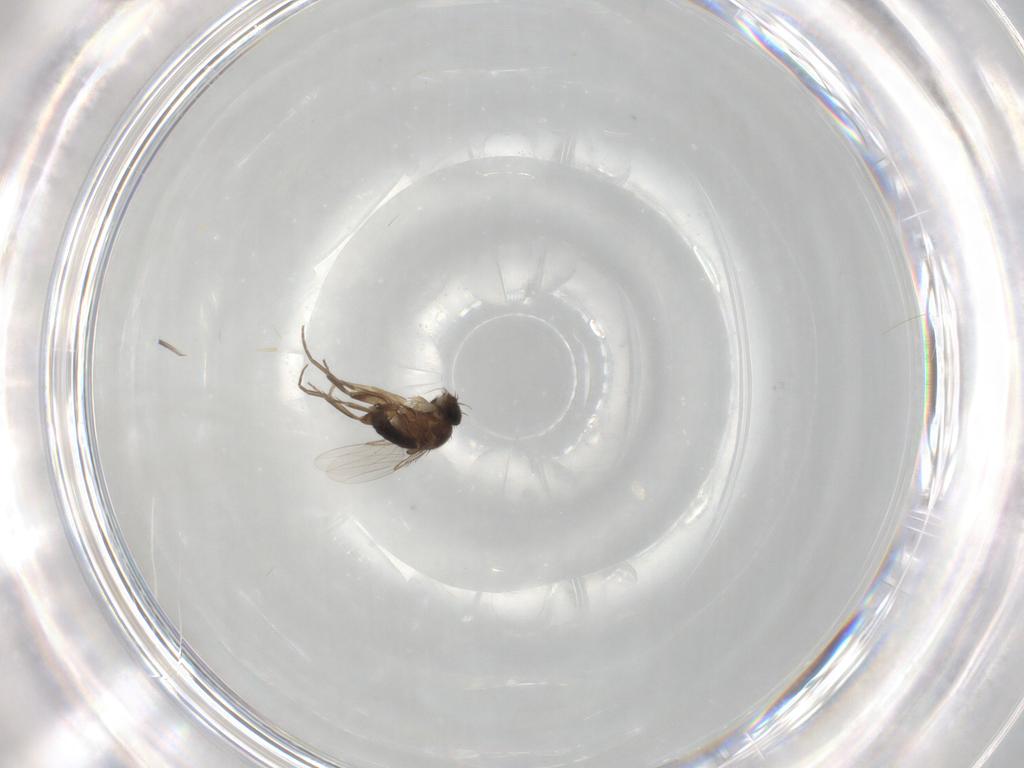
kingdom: Animalia
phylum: Arthropoda
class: Insecta
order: Diptera
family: Phoridae
